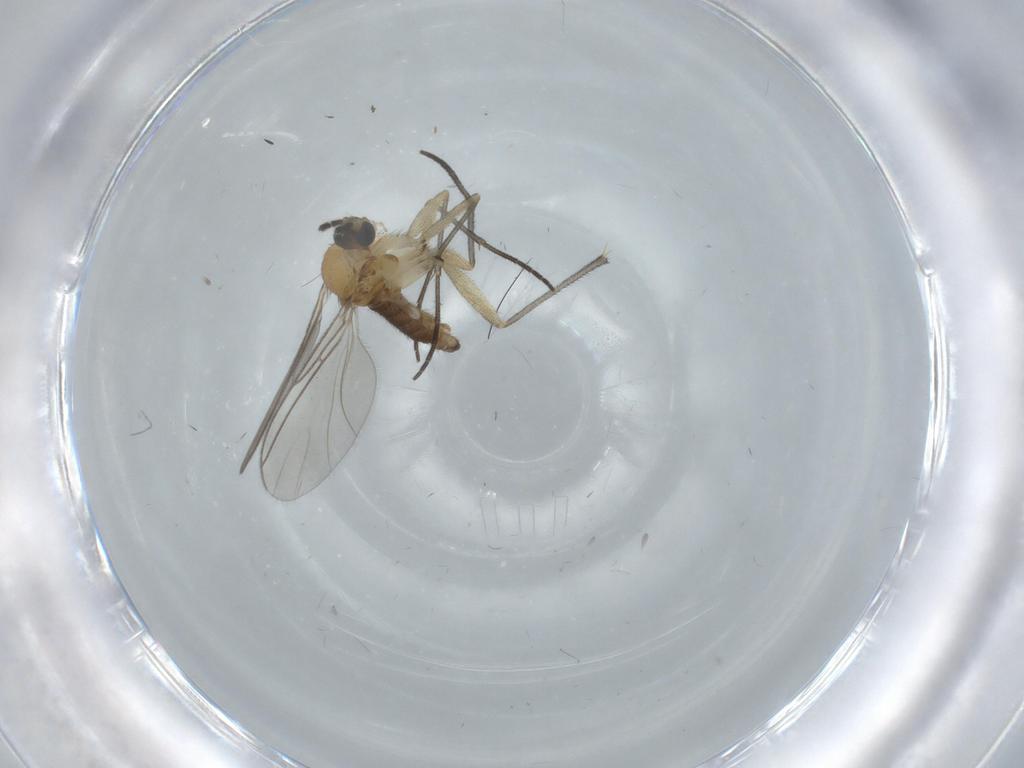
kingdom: Animalia
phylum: Arthropoda
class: Insecta
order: Diptera
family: Sciaridae
